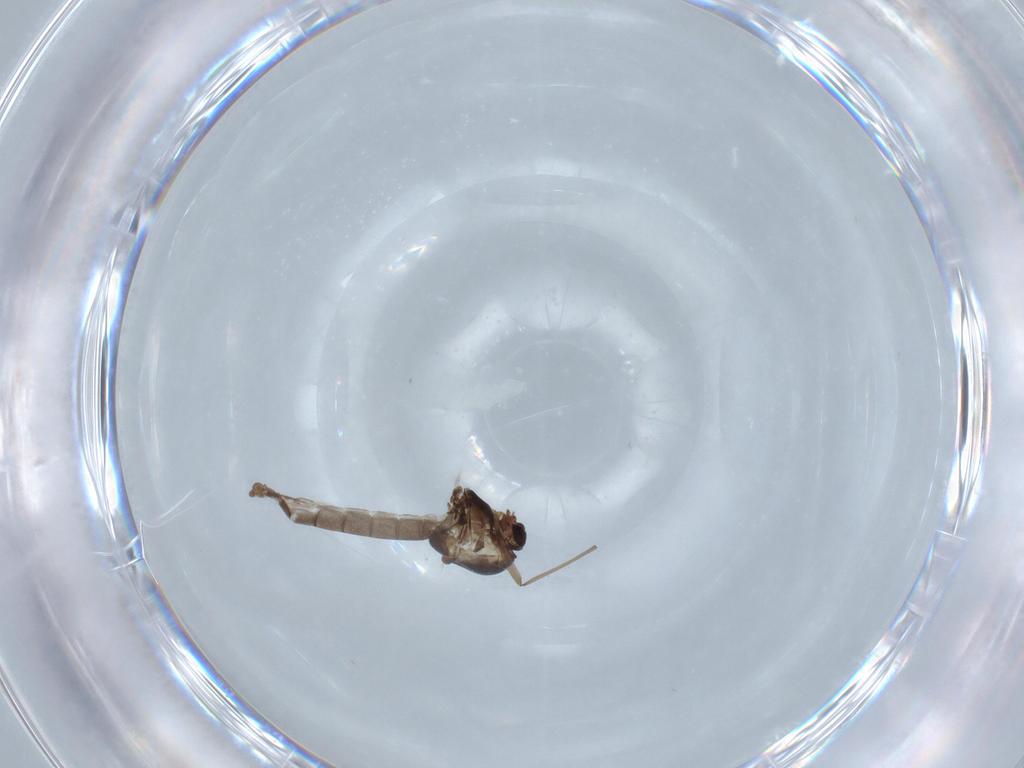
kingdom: Animalia
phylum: Arthropoda
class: Insecta
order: Diptera
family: Chironomidae
